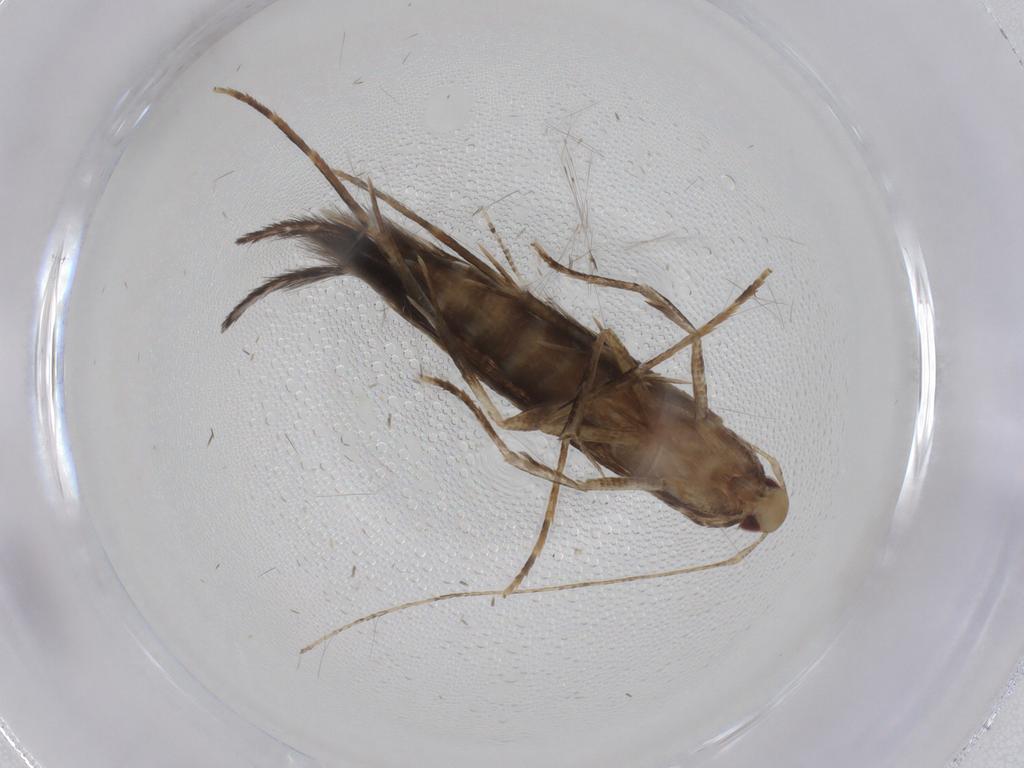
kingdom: Animalia
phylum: Arthropoda
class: Insecta
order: Lepidoptera
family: Cosmopterigidae
